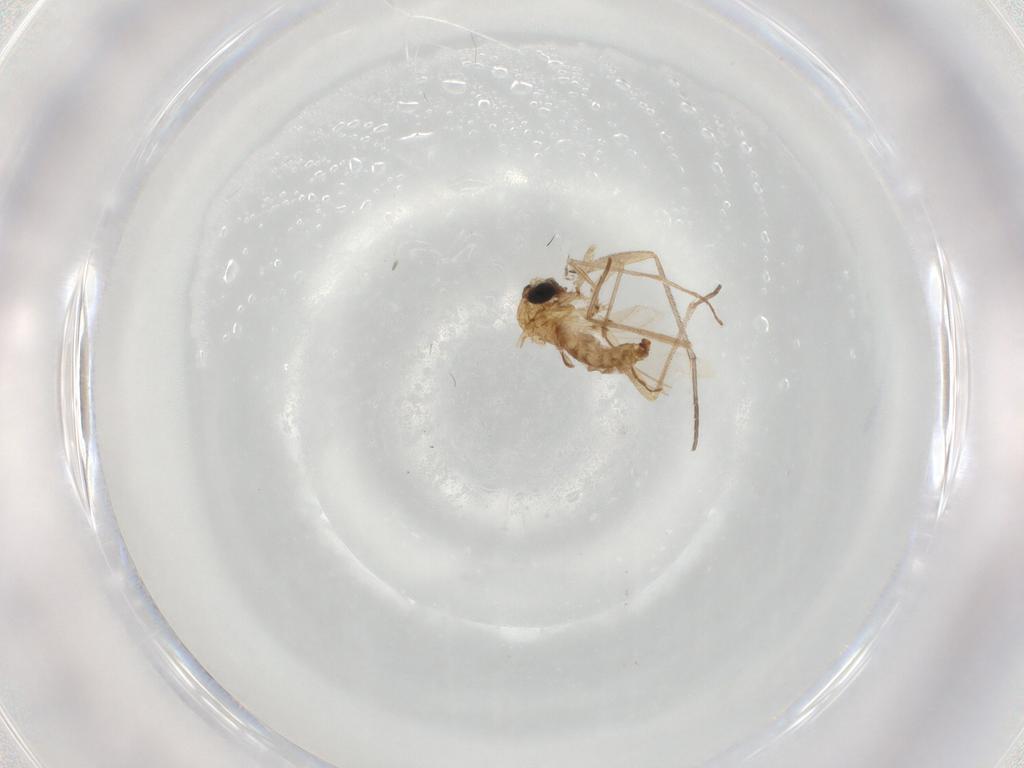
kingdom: Animalia
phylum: Arthropoda
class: Insecta
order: Diptera
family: Sciaridae
